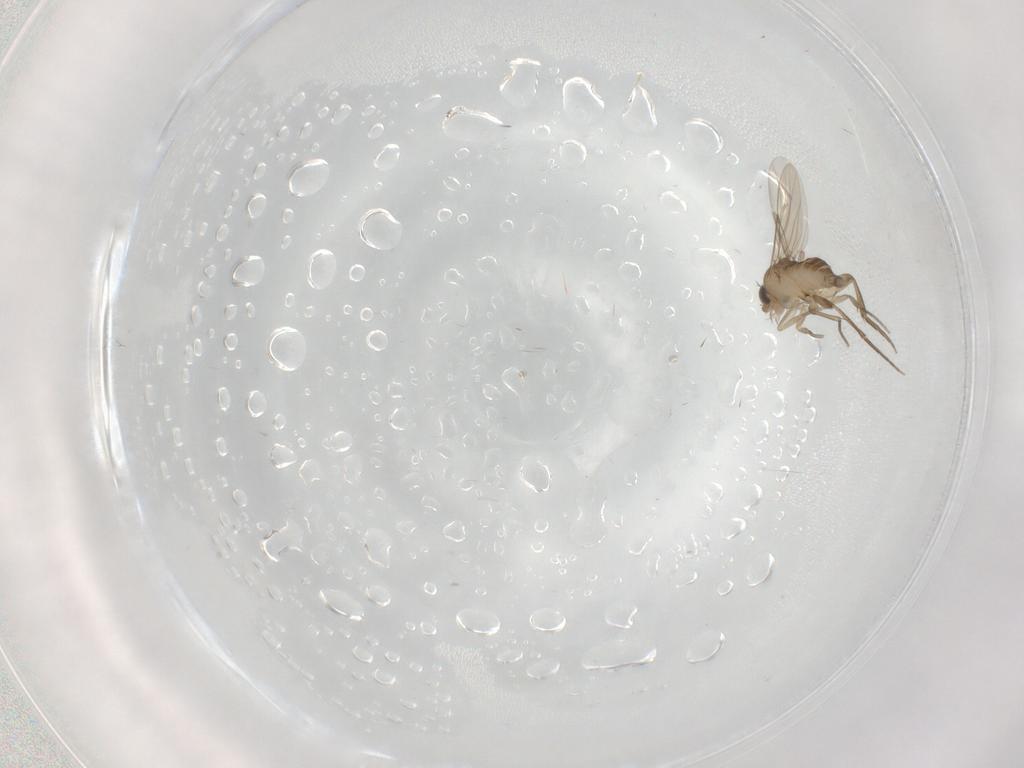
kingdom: Animalia
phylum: Arthropoda
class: Insecta
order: Diptera
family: Phoridae
